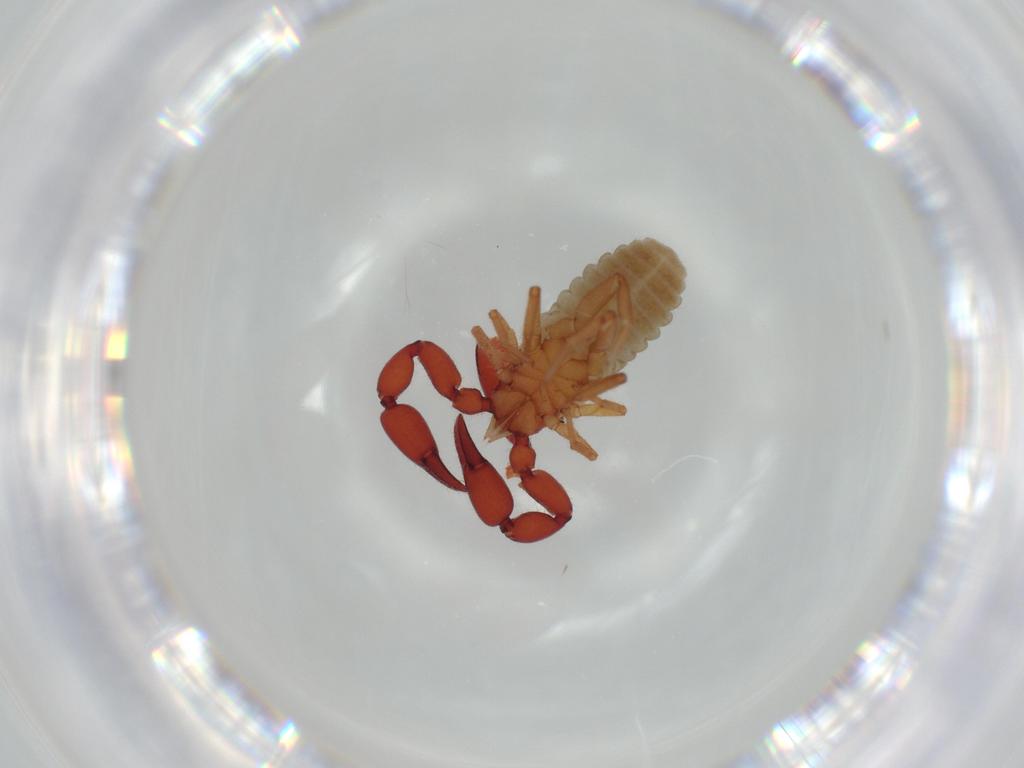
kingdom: Animalia
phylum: Arthropoda
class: Arachnida
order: Pseudoscorpiones
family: Chernetidae
